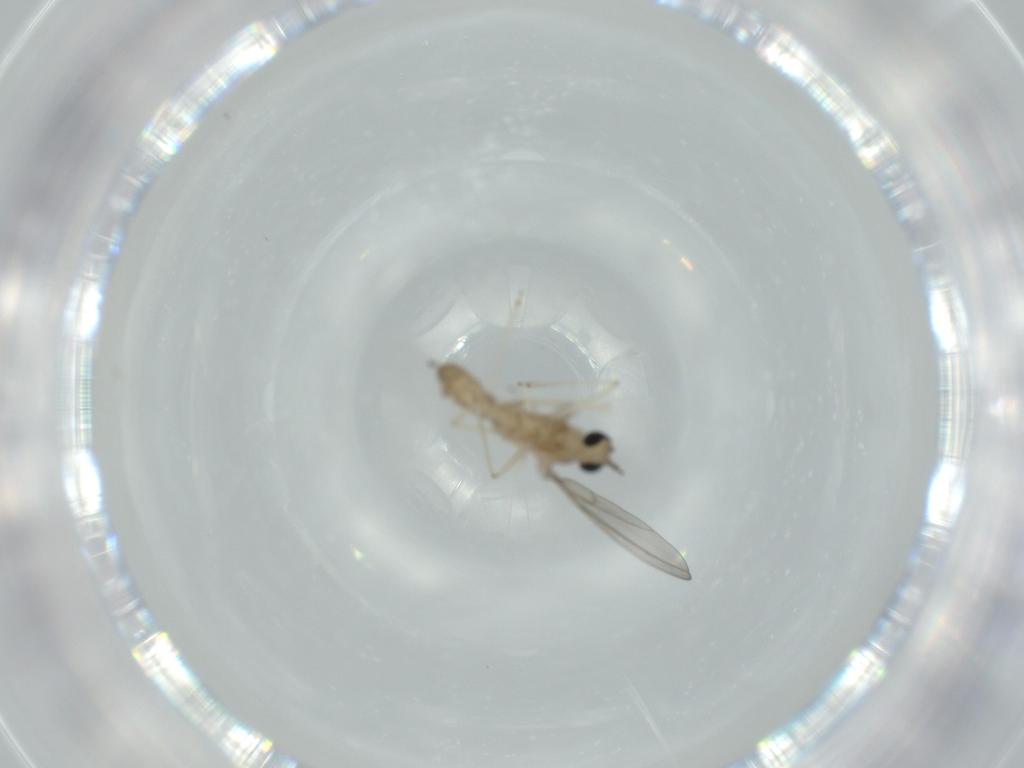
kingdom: Animalia
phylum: Arthropoda
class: Insecta
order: Diptera
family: Cecidomyiidae
